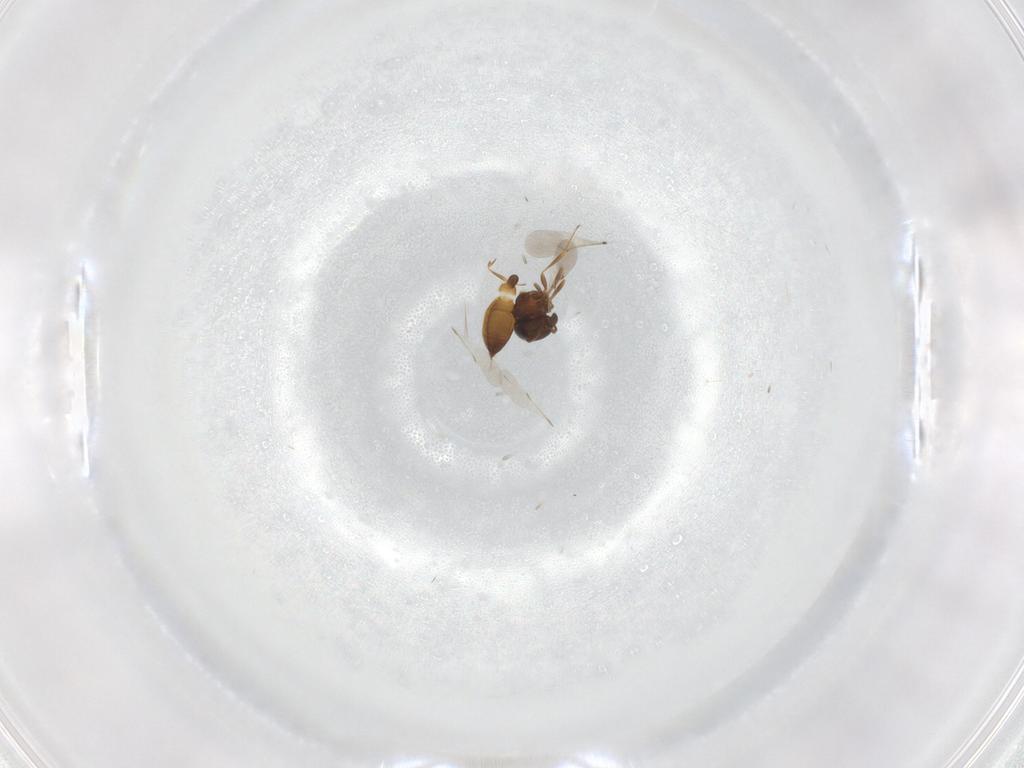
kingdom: Animalia
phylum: Arthropoda
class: Insecta
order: Hymenoptera
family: Scelionidae
